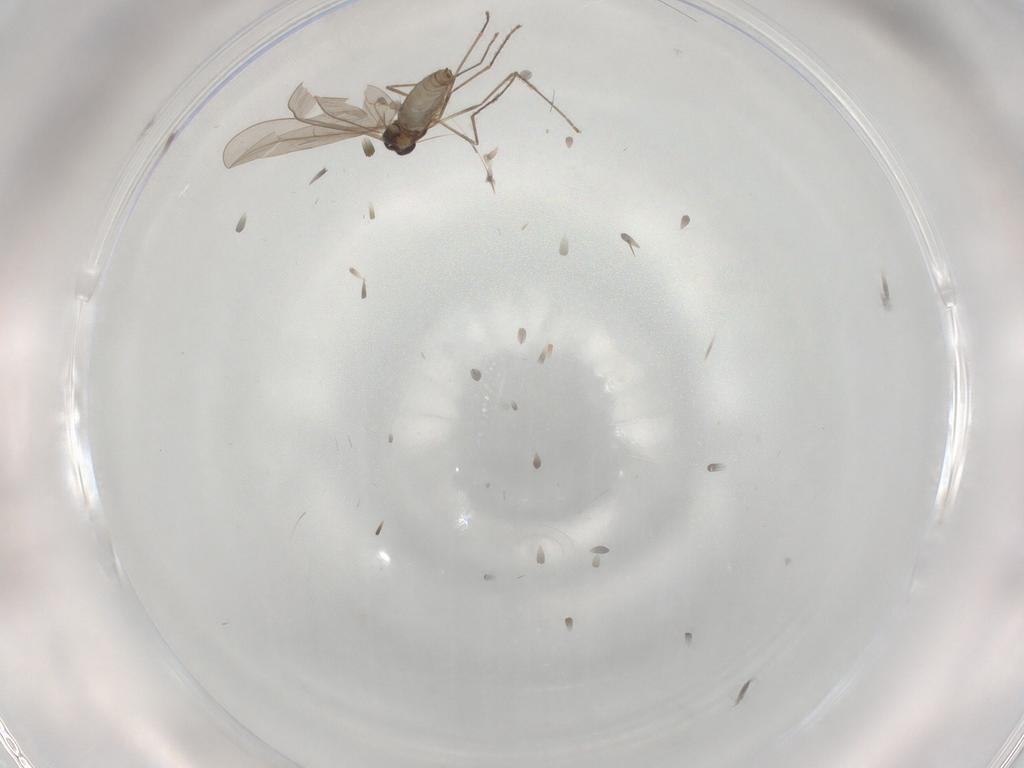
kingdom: Animalia
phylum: Arthropoda
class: Insecta
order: Diptera
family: Cecidomyiidae
